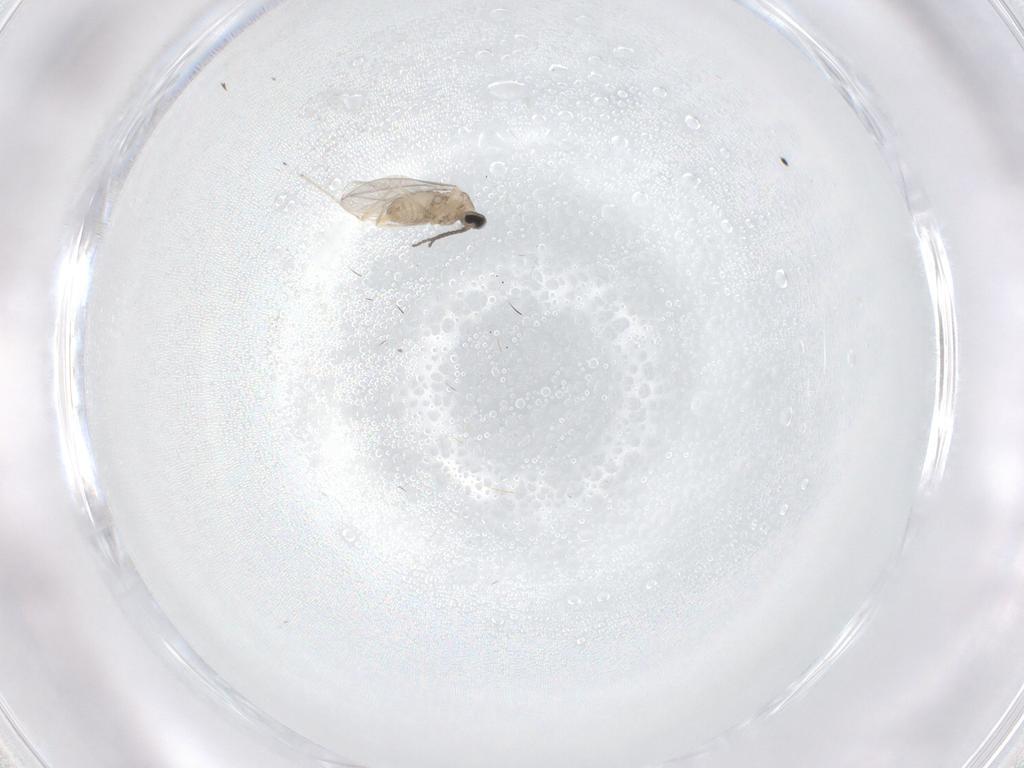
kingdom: Animalia
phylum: Arthropoda
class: Insecta
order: Diptera
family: Cecidomyiidae
